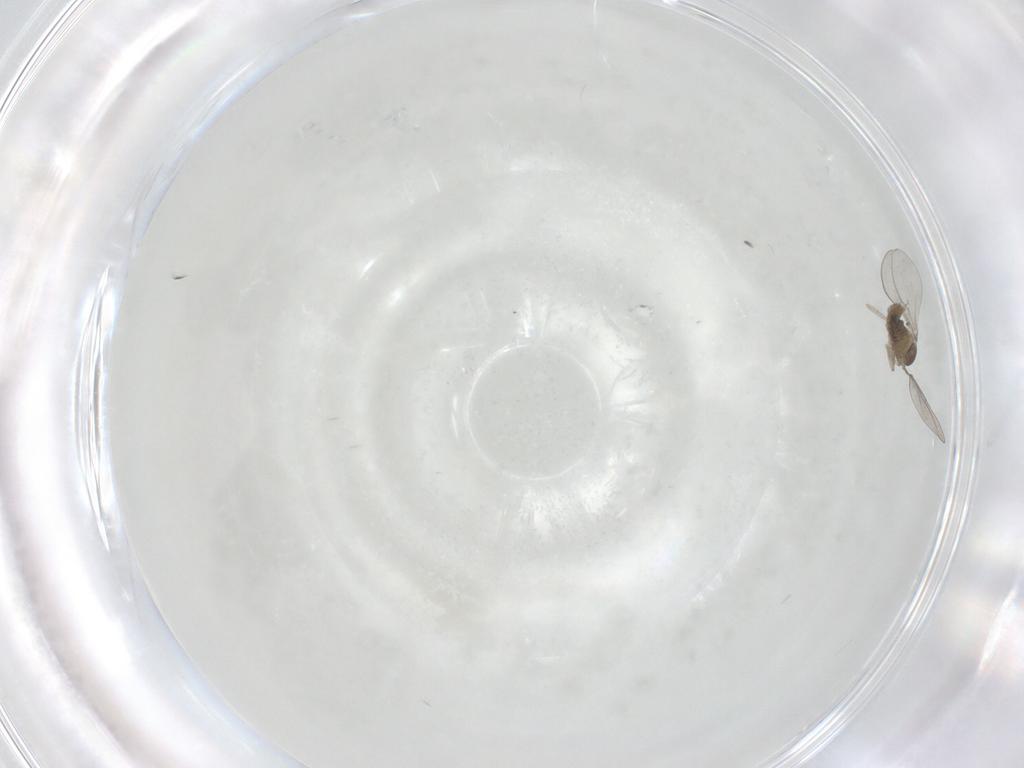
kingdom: Animalia
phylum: Arthropoda
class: Insecta
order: Diptera
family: Cecidomyiidae
